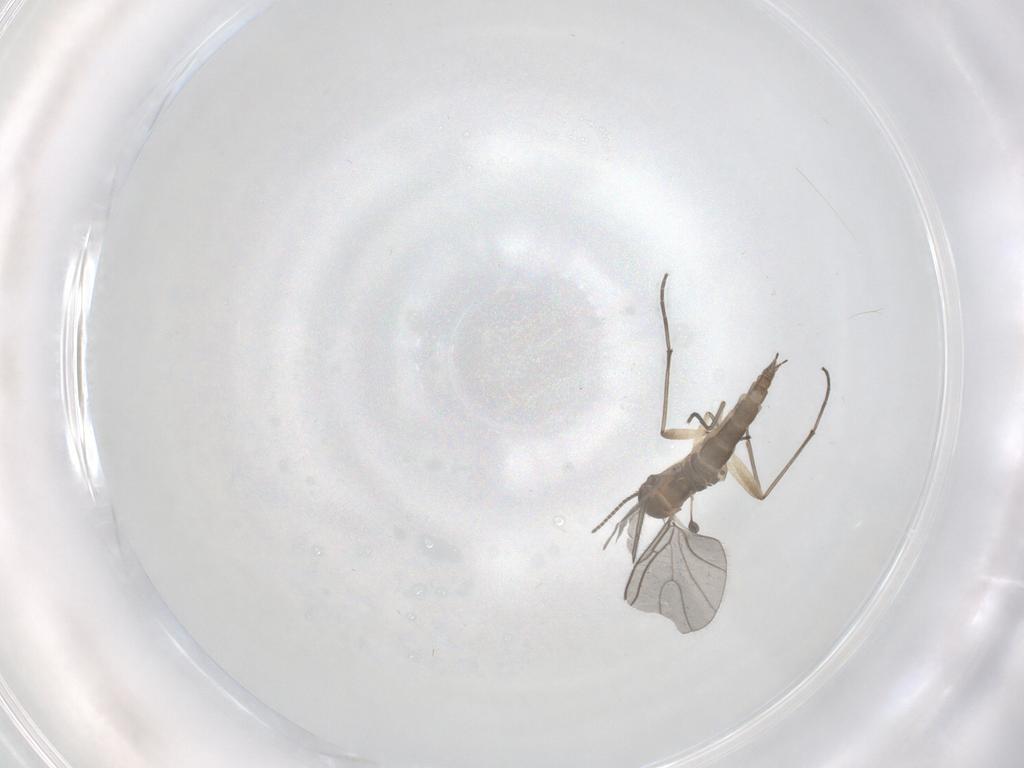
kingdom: Animalia
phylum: Arthropoda
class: Insecta
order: Diptera
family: Sciaridae
